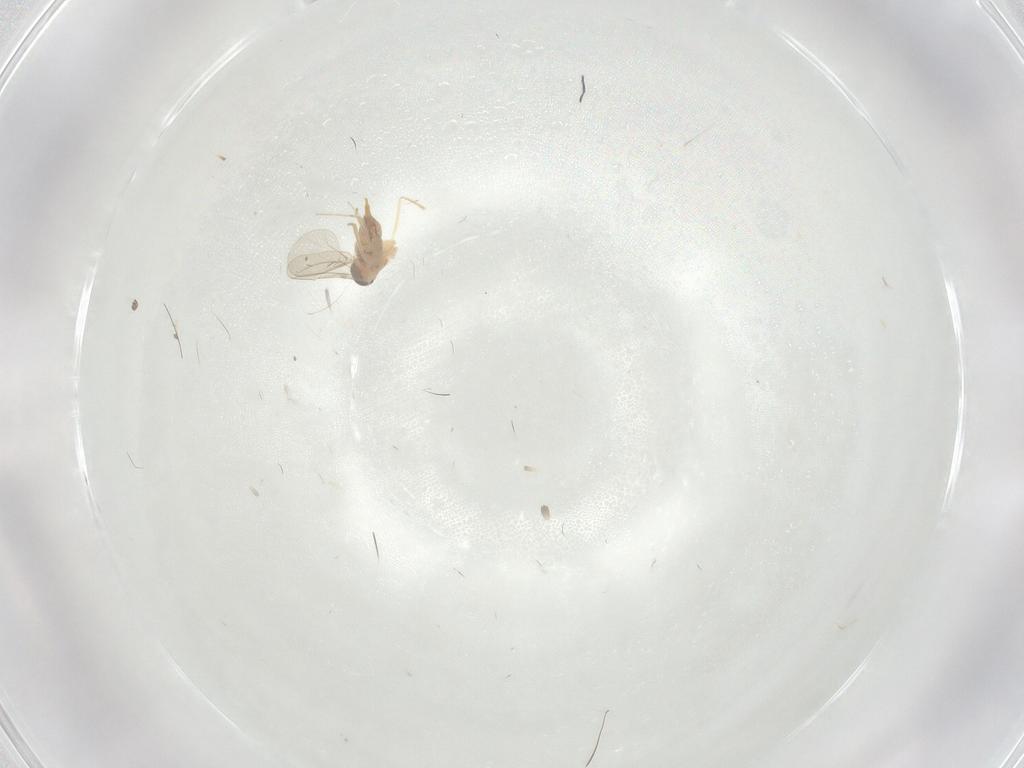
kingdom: Animalia
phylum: Arthropoda
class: Insecta
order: Diptera
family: Cecidomyiidae
